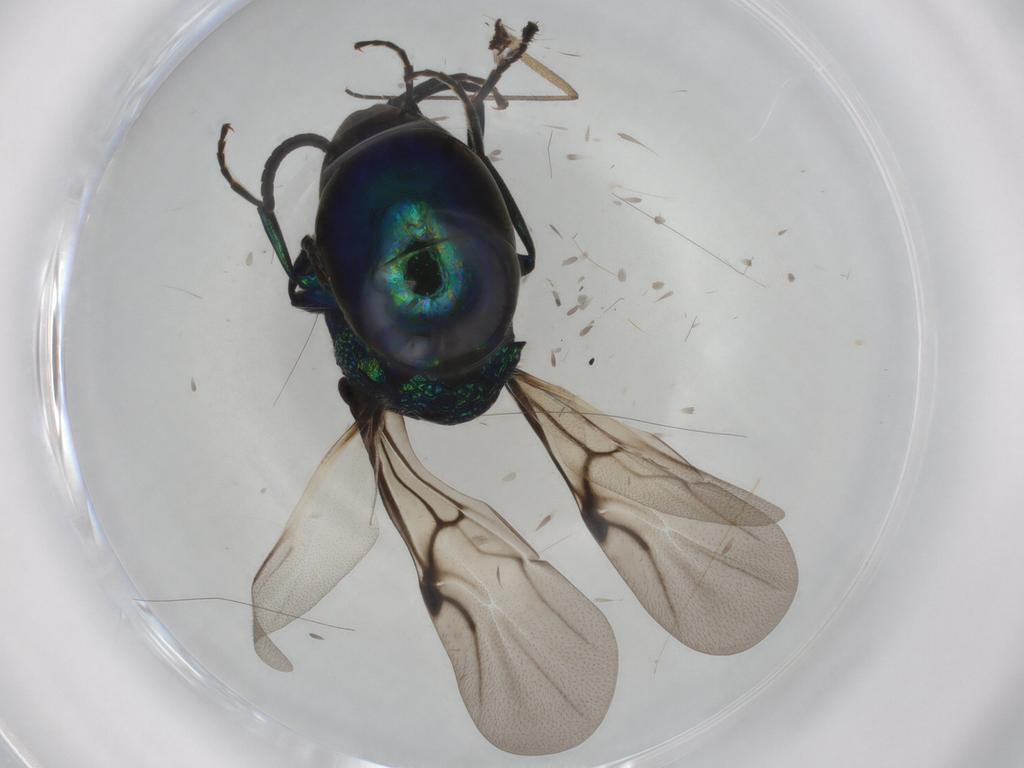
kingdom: Animalia
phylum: Arthropoda
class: Insecta
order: Hymenoptera
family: Chrysididae
